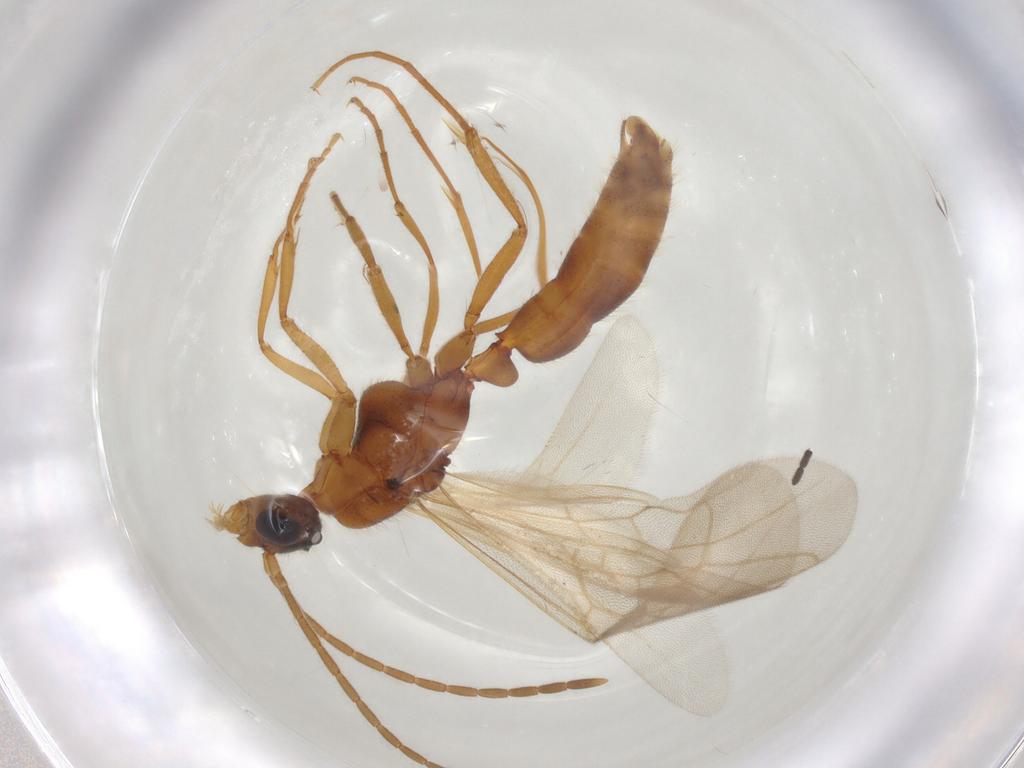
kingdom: Animalia
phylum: Arthropoda
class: Insecta
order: Hymenoptera
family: Formicidae
